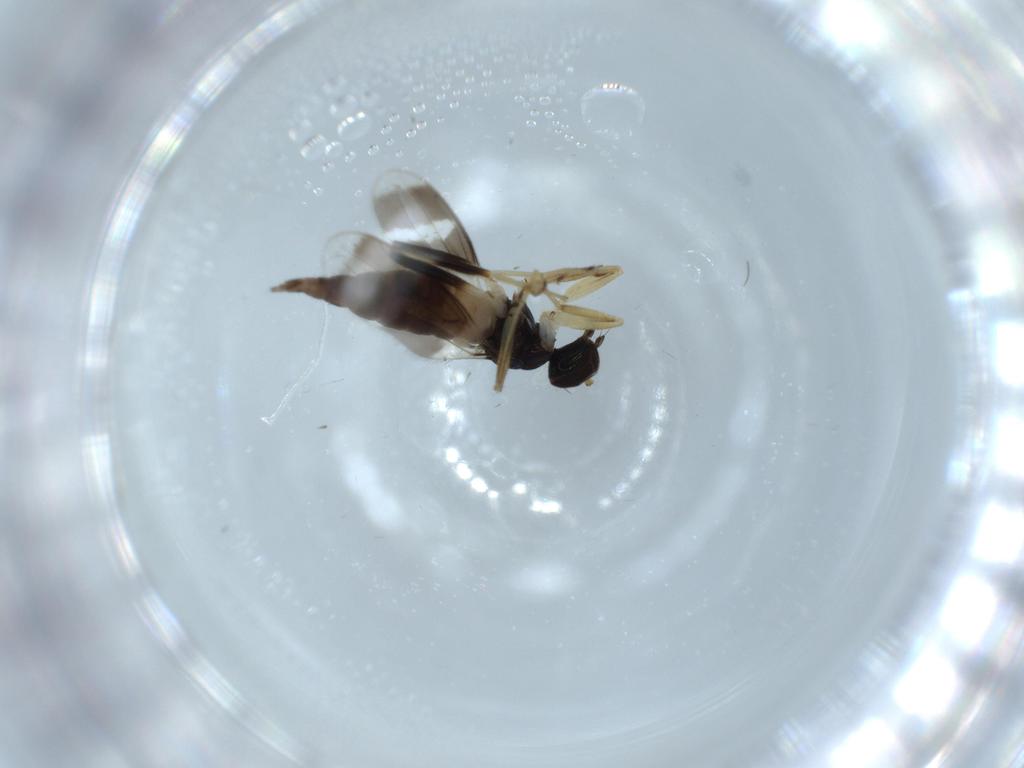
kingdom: Animalia
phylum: Arthropoda
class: Insecta
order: Diptera
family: Hybotidae
